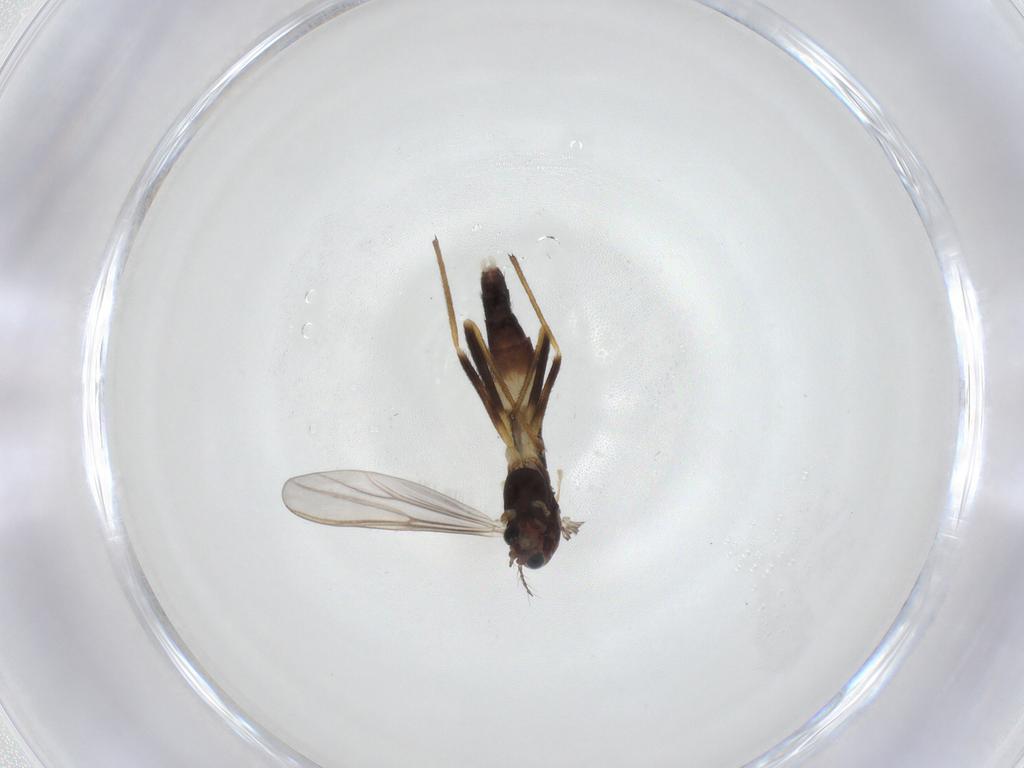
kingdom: Animalia
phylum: Arthropoda
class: Insecta
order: Diptera
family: Chironomidae
